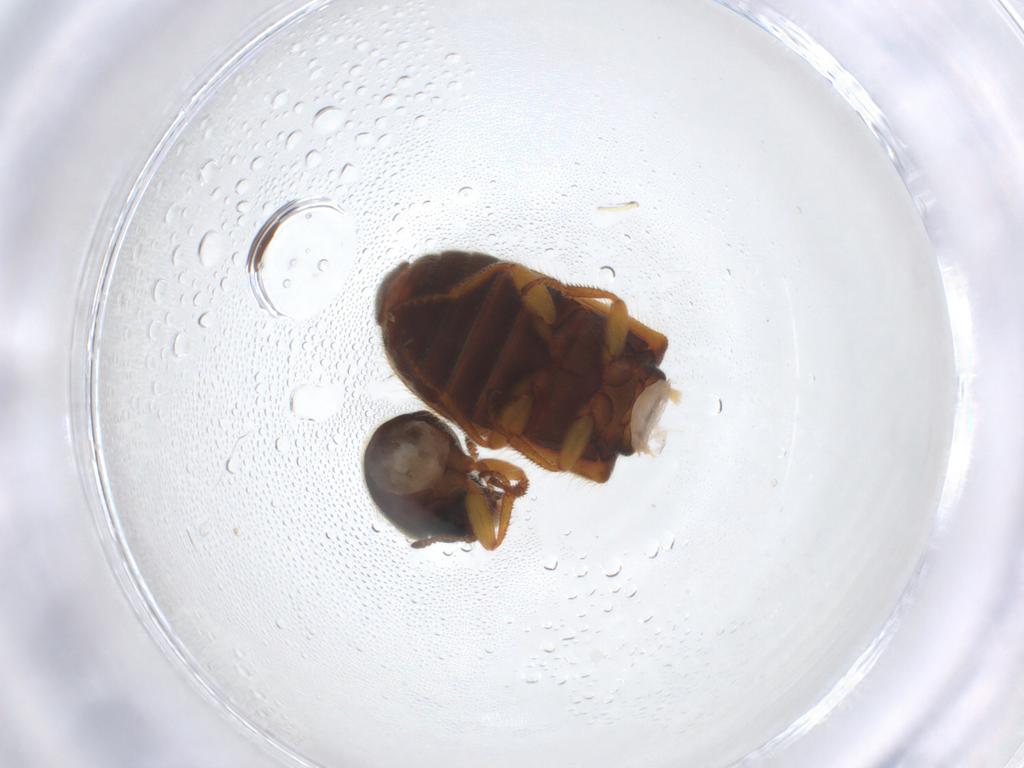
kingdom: Animalia
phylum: Arthropoda
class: Insecta
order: Coleoptera
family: Melyridae
